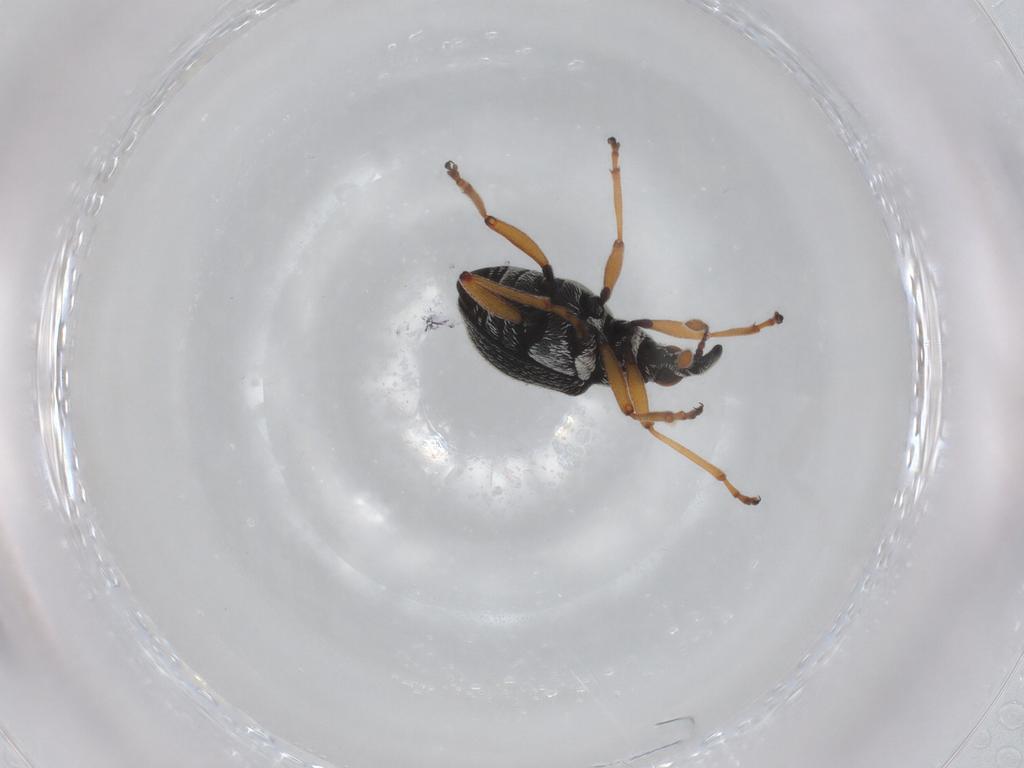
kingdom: Animalia
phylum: Arthropoda
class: Insecta
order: Coleoptera
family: Brentidae
